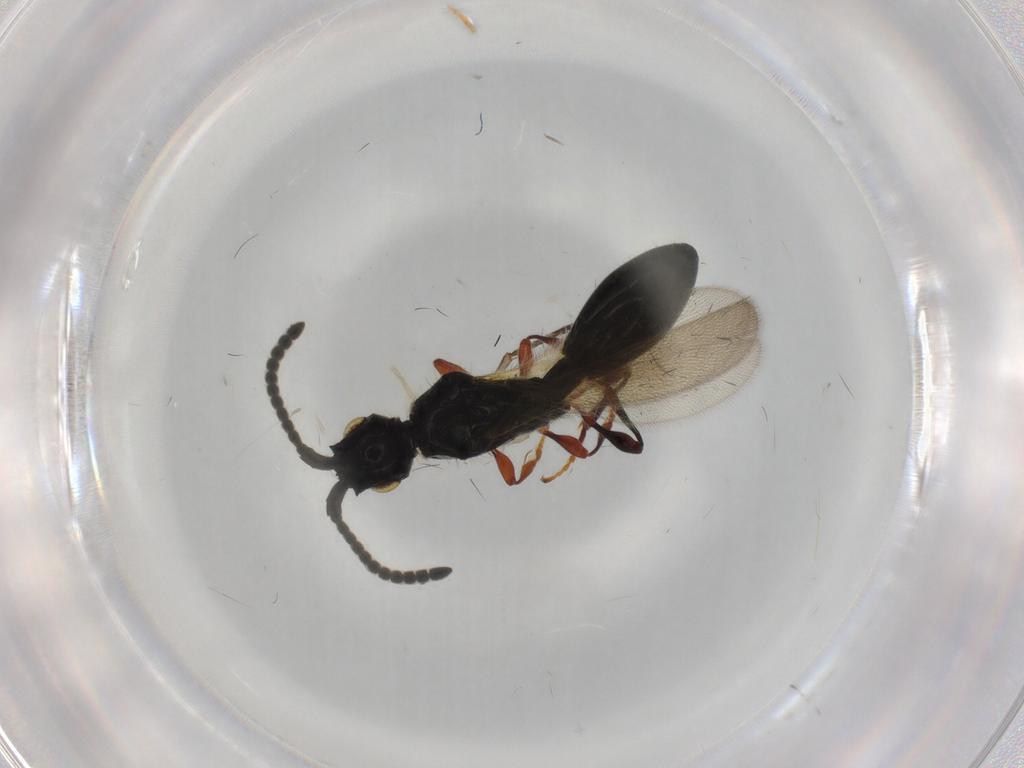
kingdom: Animalia
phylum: Arthropoda
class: Insecta
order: Hymenoptera
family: Diapriidae
